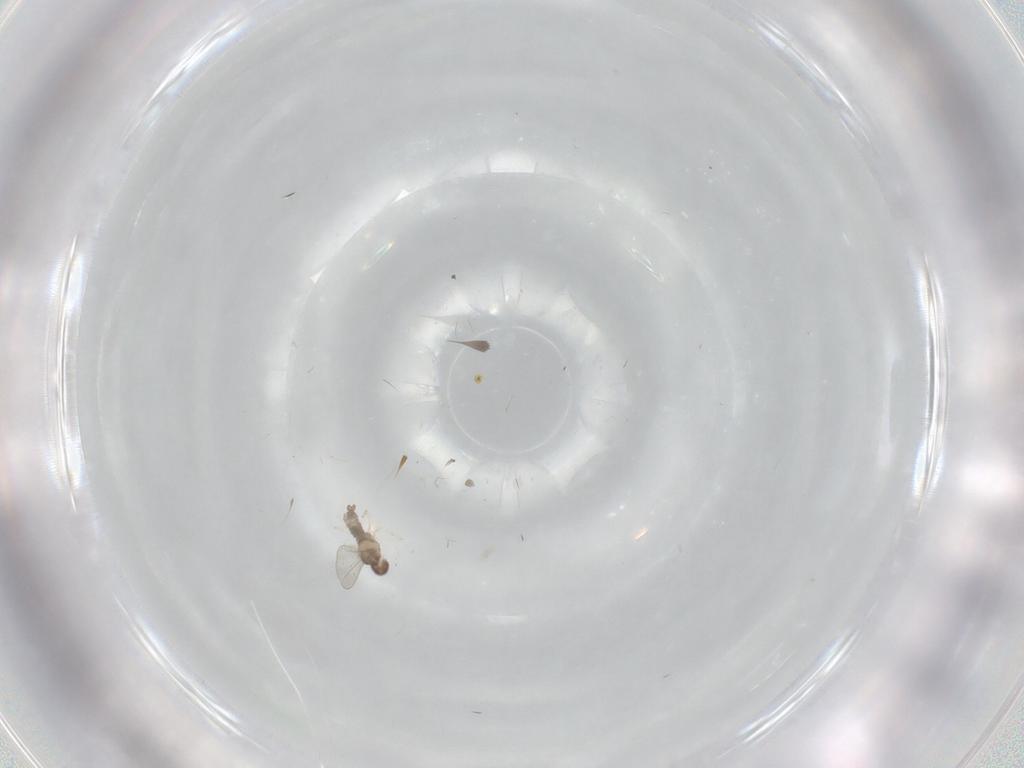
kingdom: Animalia
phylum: Arthropoda
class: Insecta
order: Diptera
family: Cecidomyiidae
